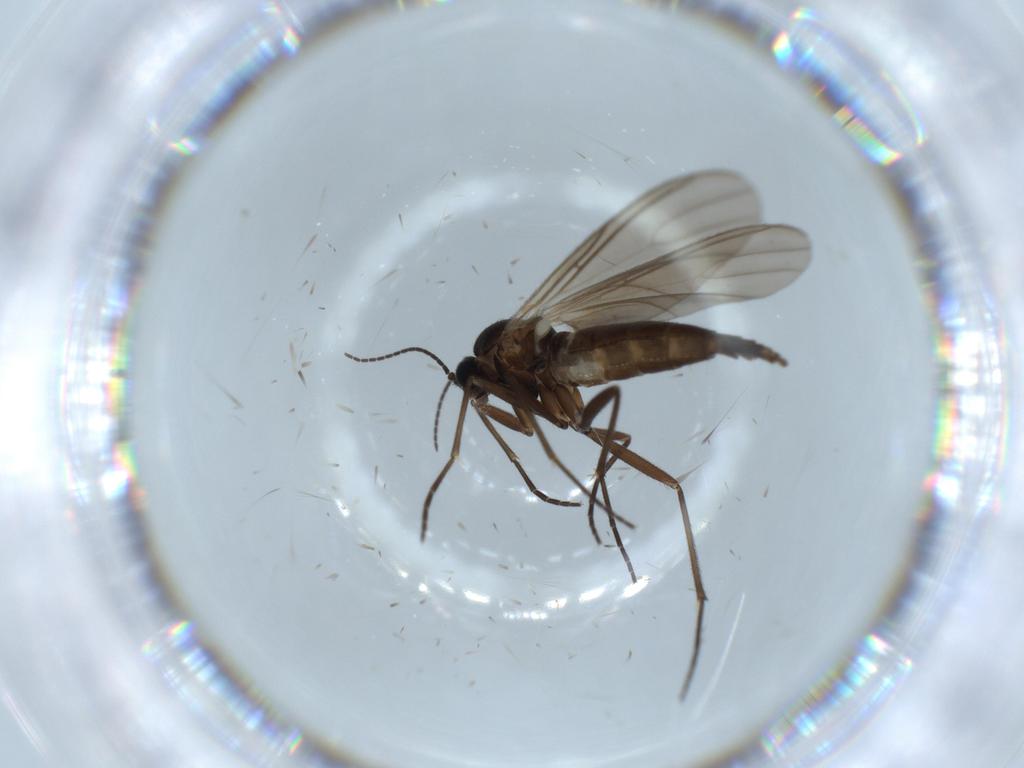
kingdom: Animalia
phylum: Arthropoda
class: Insecta
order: Diptera
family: Sciaridae
